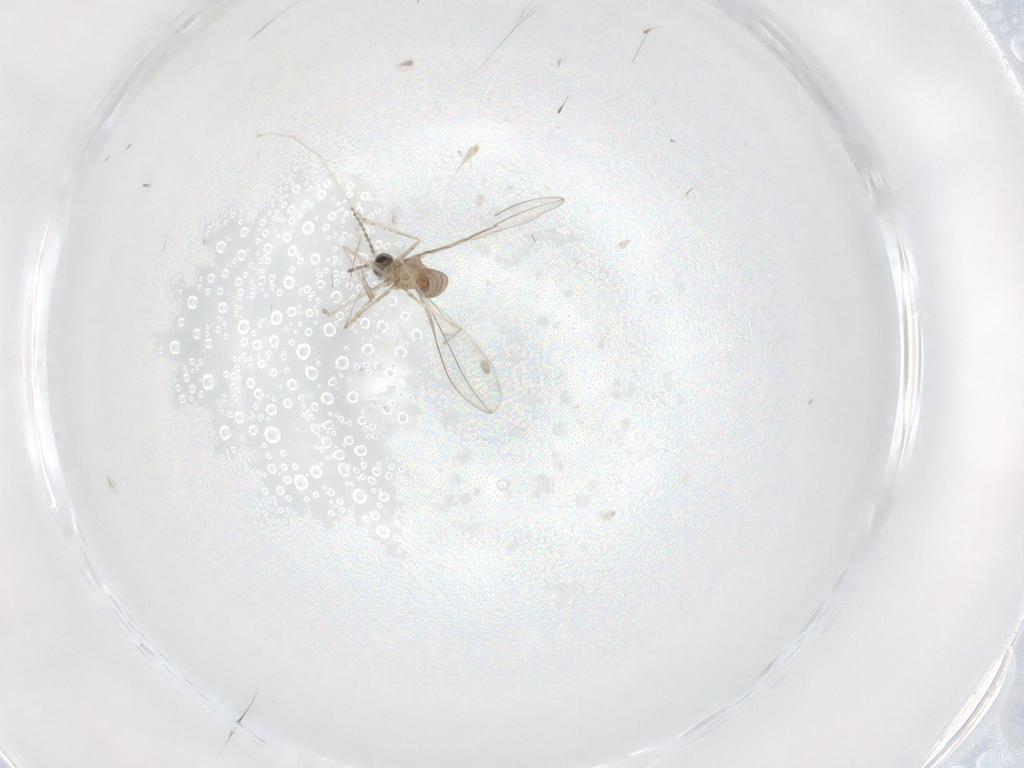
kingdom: Animalia
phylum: Arthropoda
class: Insecta
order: Diptera
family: Cecidomyiidae
